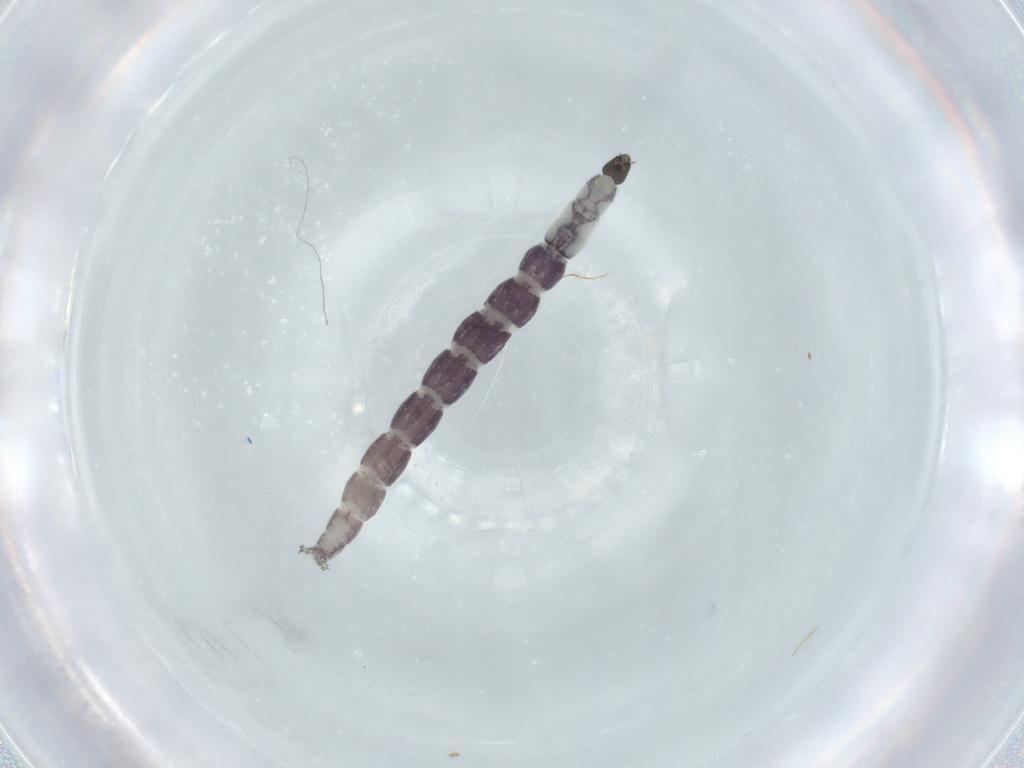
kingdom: Animalia
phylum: Arthropoda
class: Insecta
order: Diptera
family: Chironomidae
